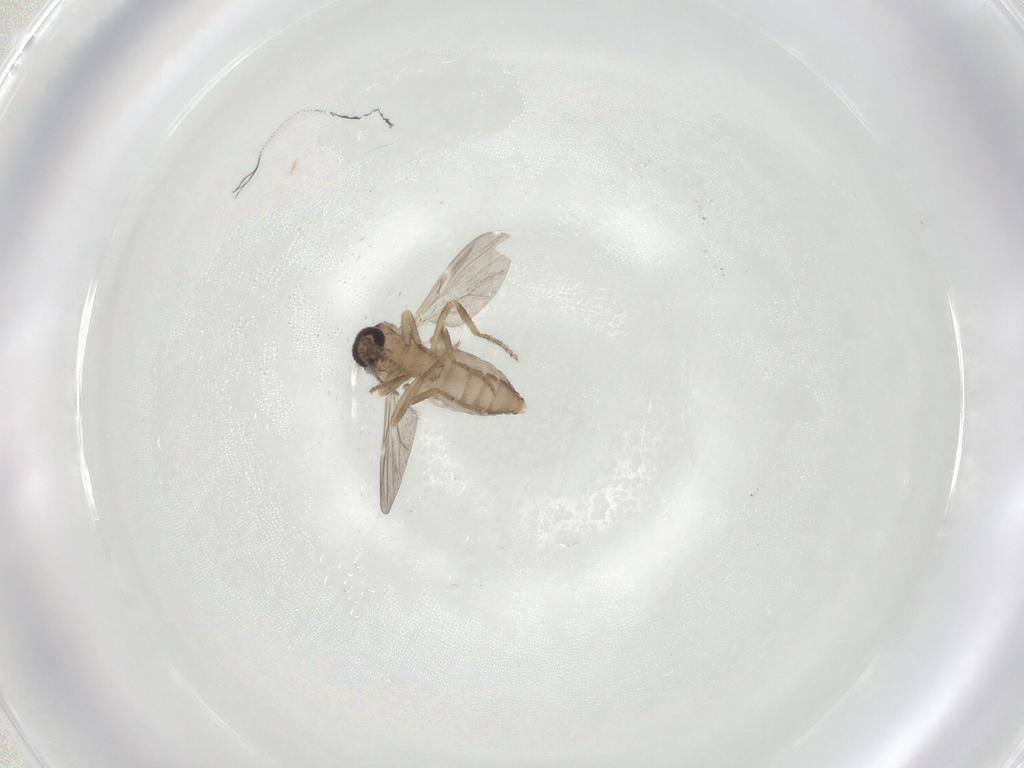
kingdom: Animalia
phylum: Arthropoda
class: Insecta
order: Diptera
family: Ceratopogonidae
